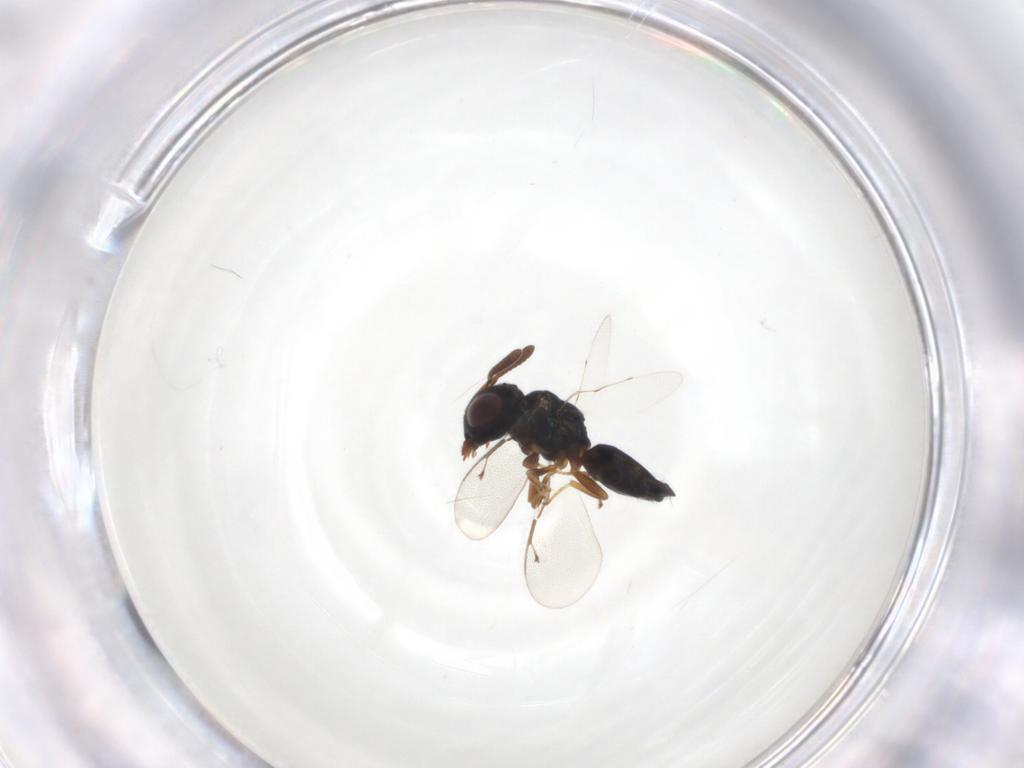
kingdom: Animalia
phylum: Arthropoda
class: Insecta
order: Hymenoptera
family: Pteromalidae
